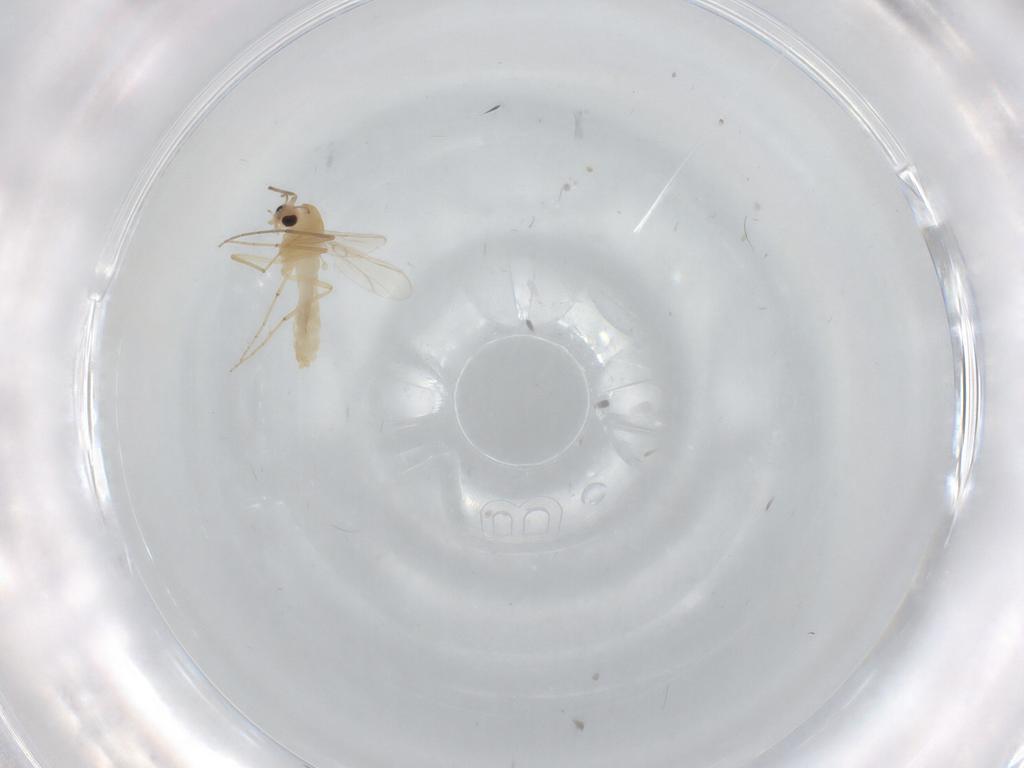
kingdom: Animalia
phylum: Arthropoda
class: Insecta
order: Diptera
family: Chironomidae
